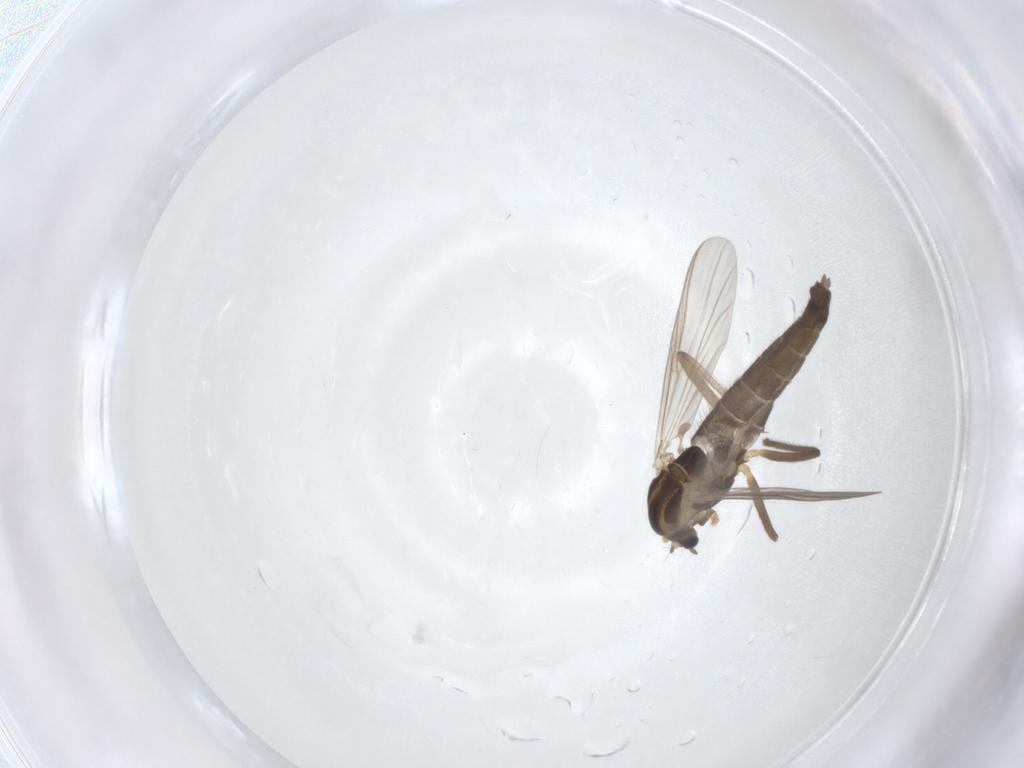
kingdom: Animalia
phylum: Arthropoda
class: Insecta
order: Diptera
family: Chironomidae
